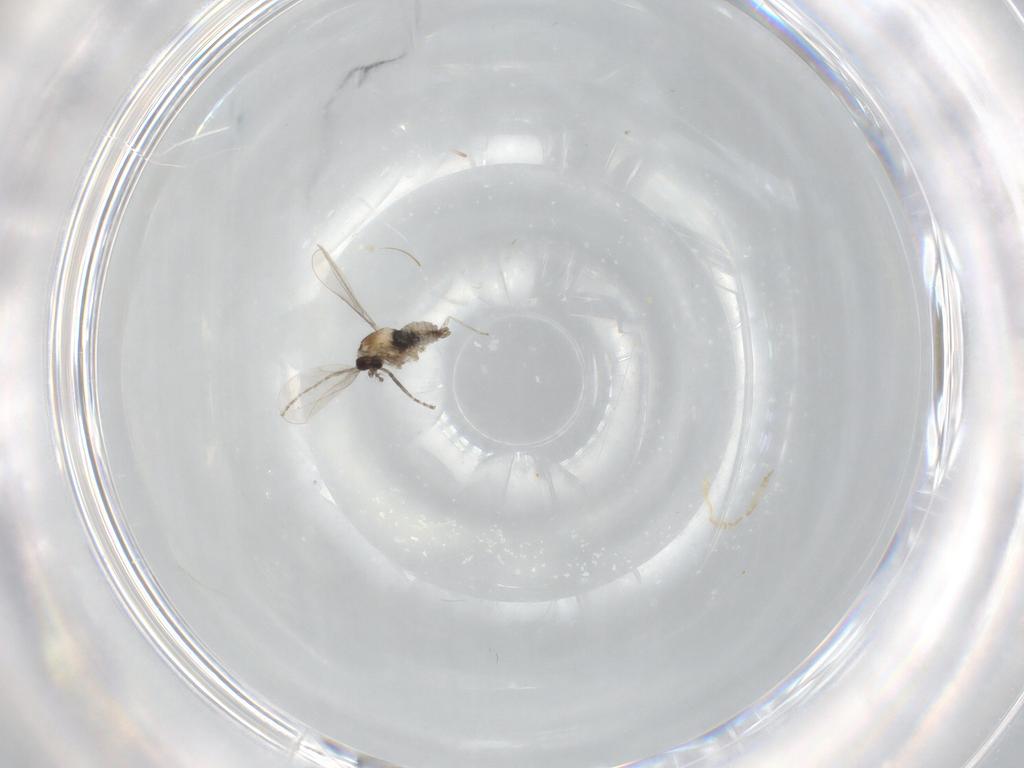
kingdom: Animalia
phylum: Arthropoda
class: Insecta
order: Diptera
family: Cecidomyiidae
